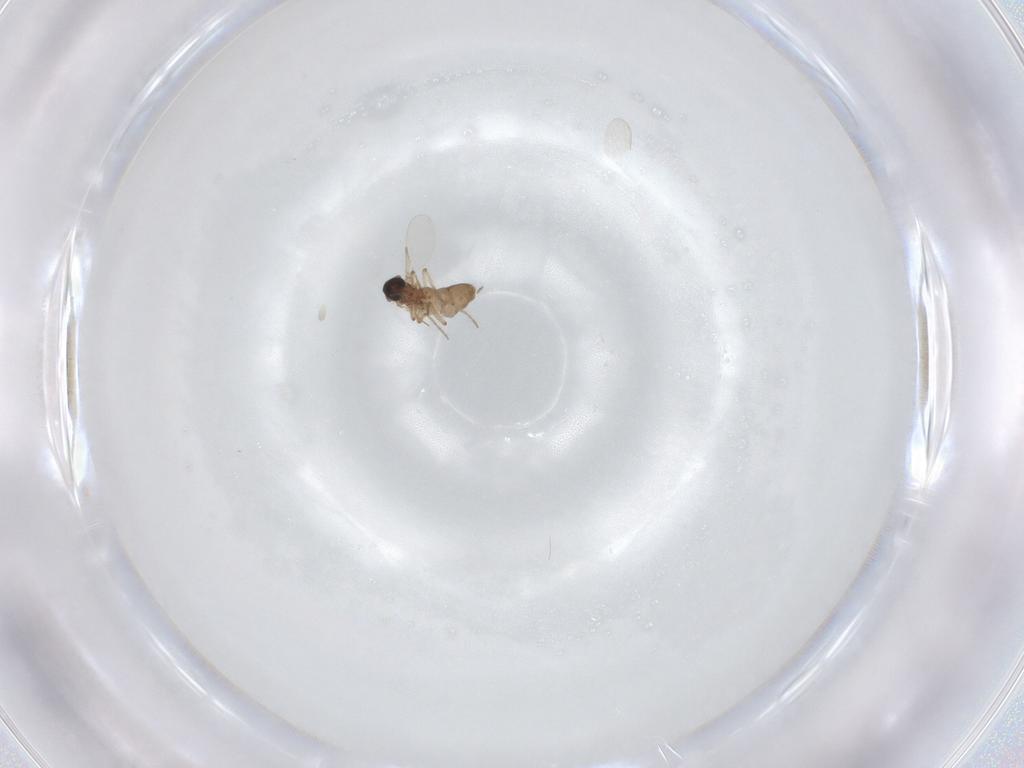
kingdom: Animalia
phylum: Arthropoda
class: Insecta
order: Diptera
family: Ceratopogonidae
